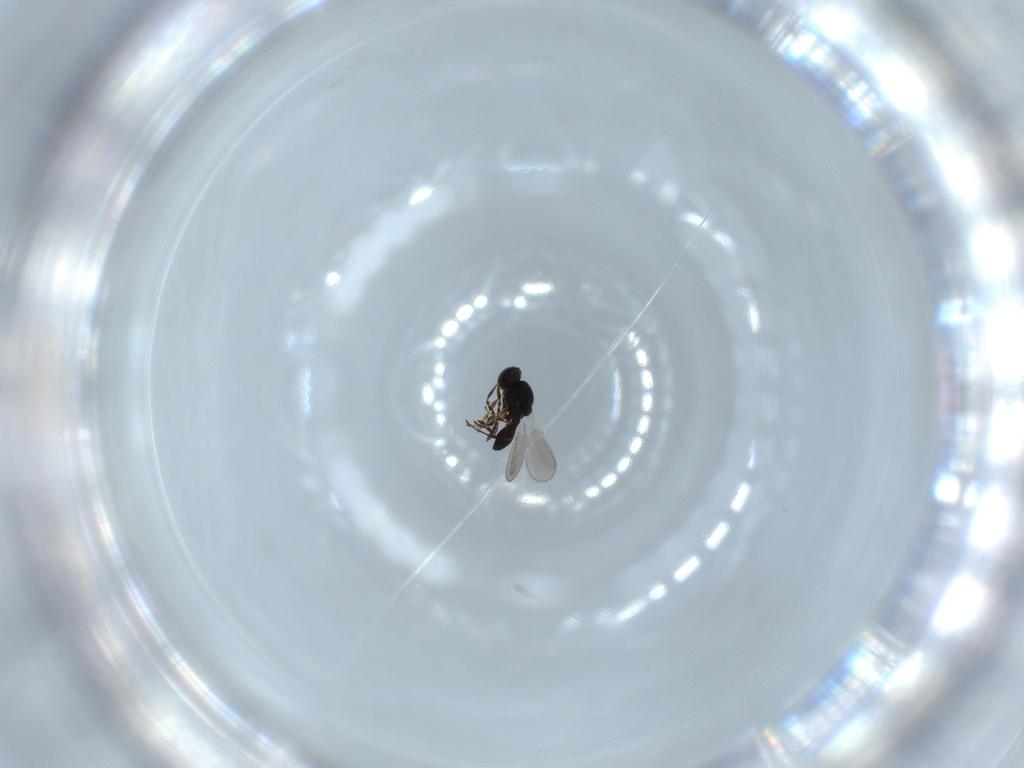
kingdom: Animalia
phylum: Arthropoda
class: Insecta
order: Hymenoptera
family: Platygastridae
